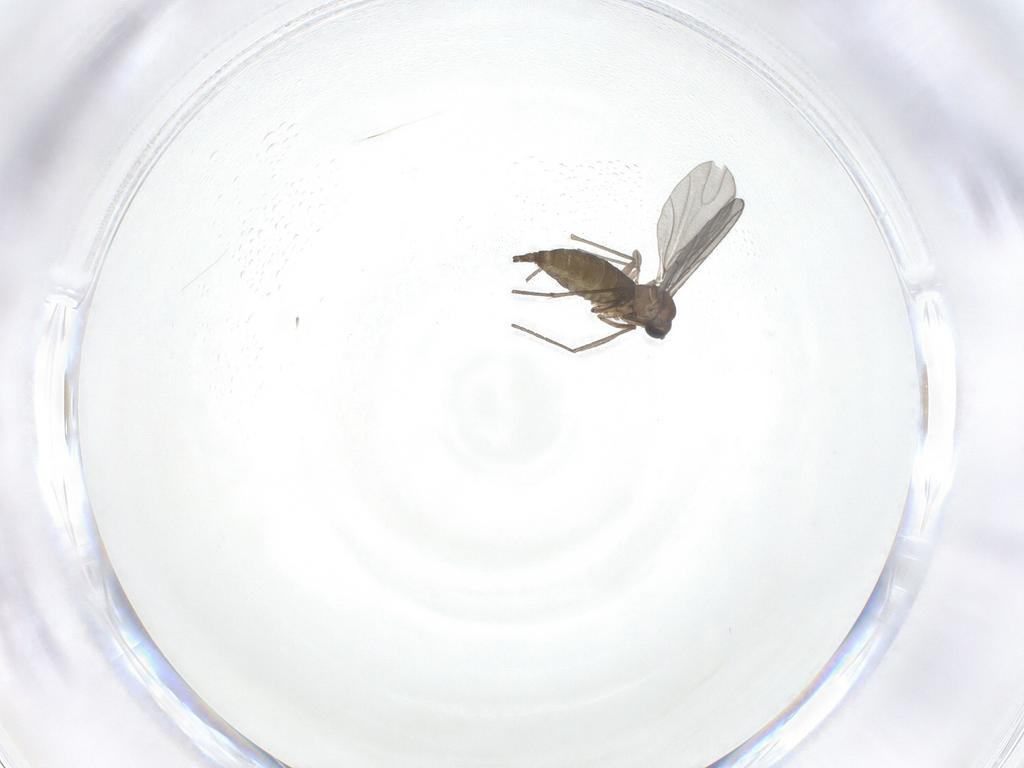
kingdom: Animalia
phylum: Arthropoda
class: Insecta
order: Diptera
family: Sciaridae
